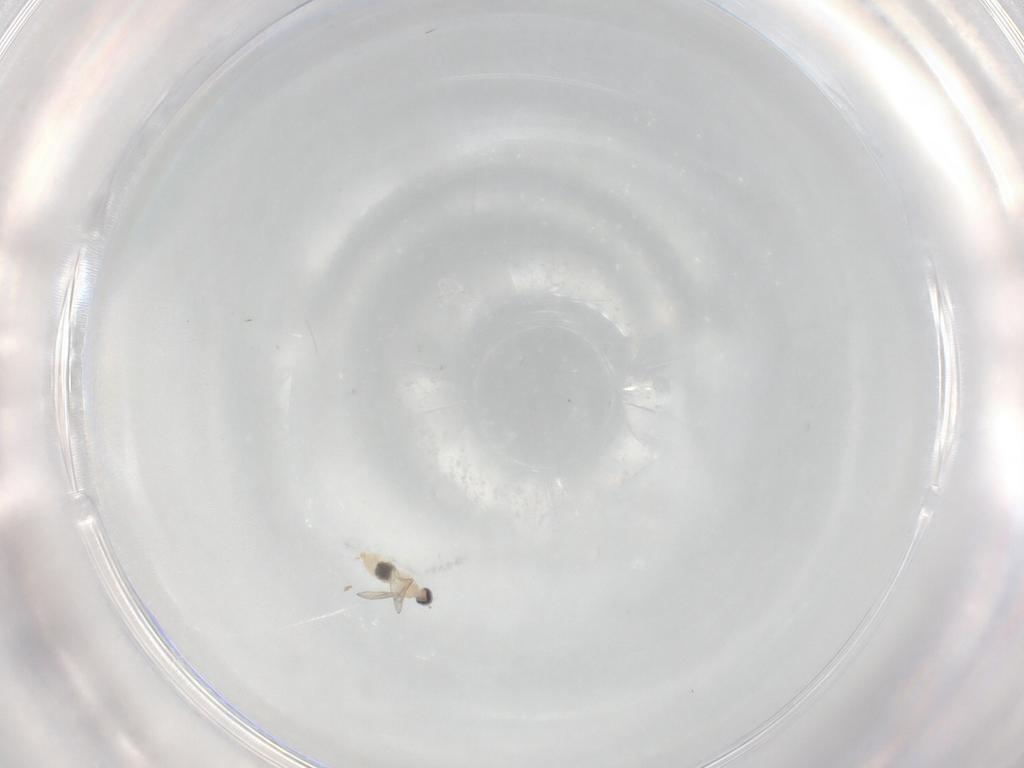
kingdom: Animalia
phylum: Arthropoda
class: Insecta
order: Diptera
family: Cecidomyiidae
